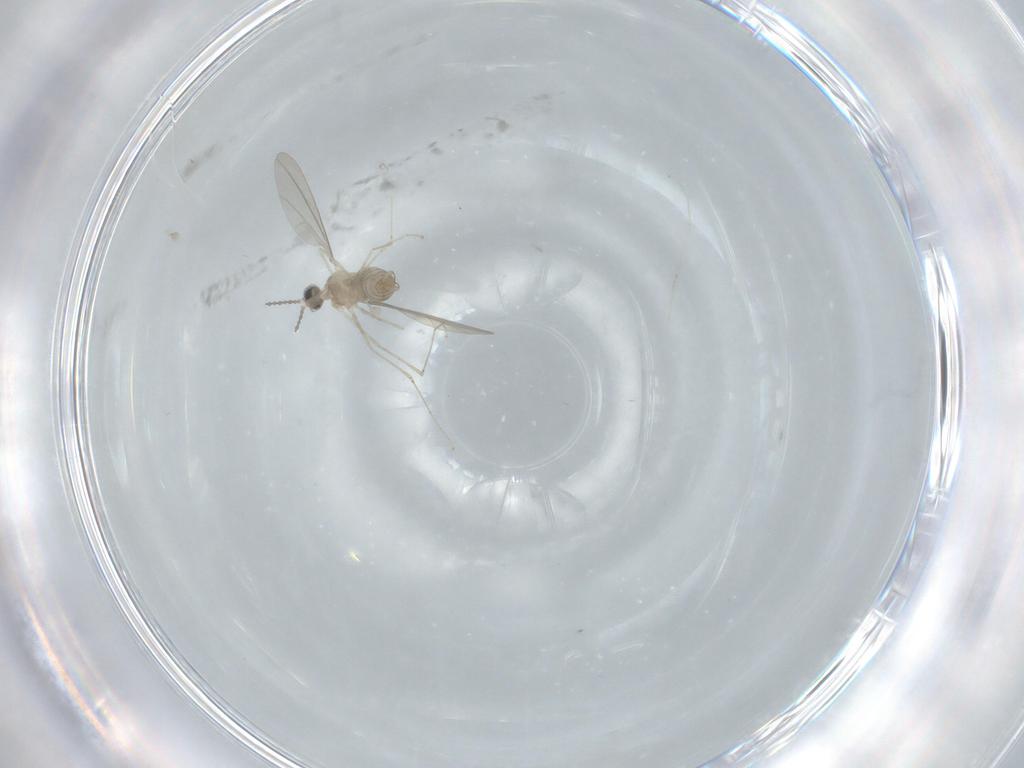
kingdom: Animalia
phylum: Arthropoda
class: Insecta
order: Diptera
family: Cecidomyiidae
